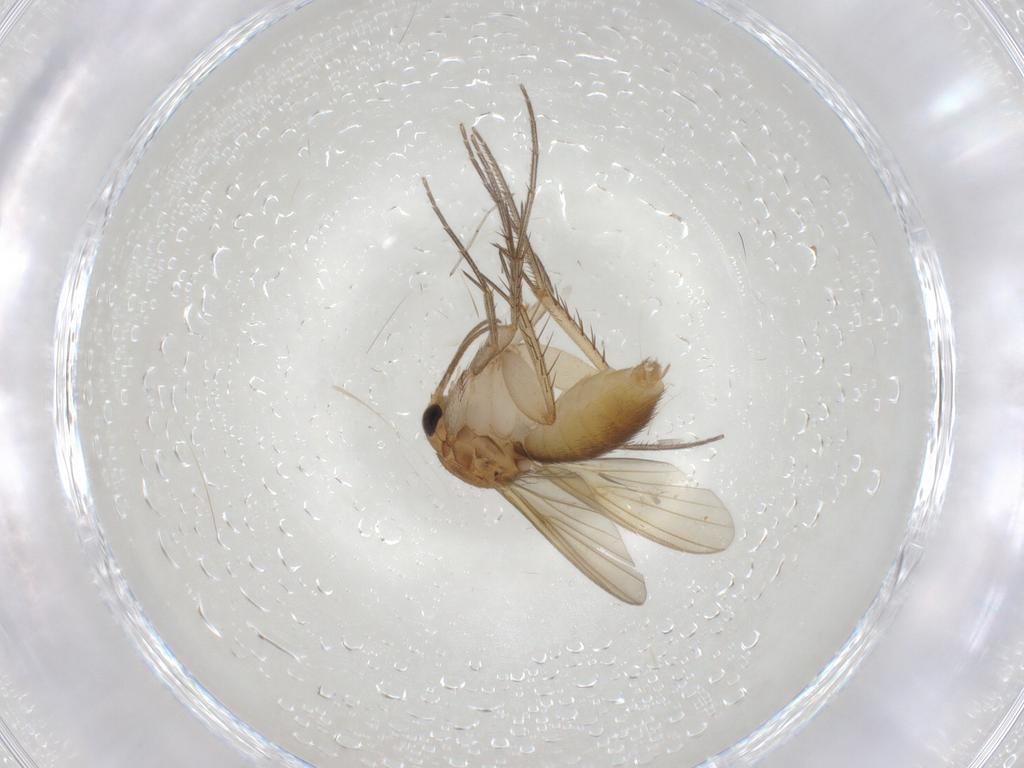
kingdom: Animalia
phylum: Arthropoda
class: Insecta
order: Diptera
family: Mycetophilidae
